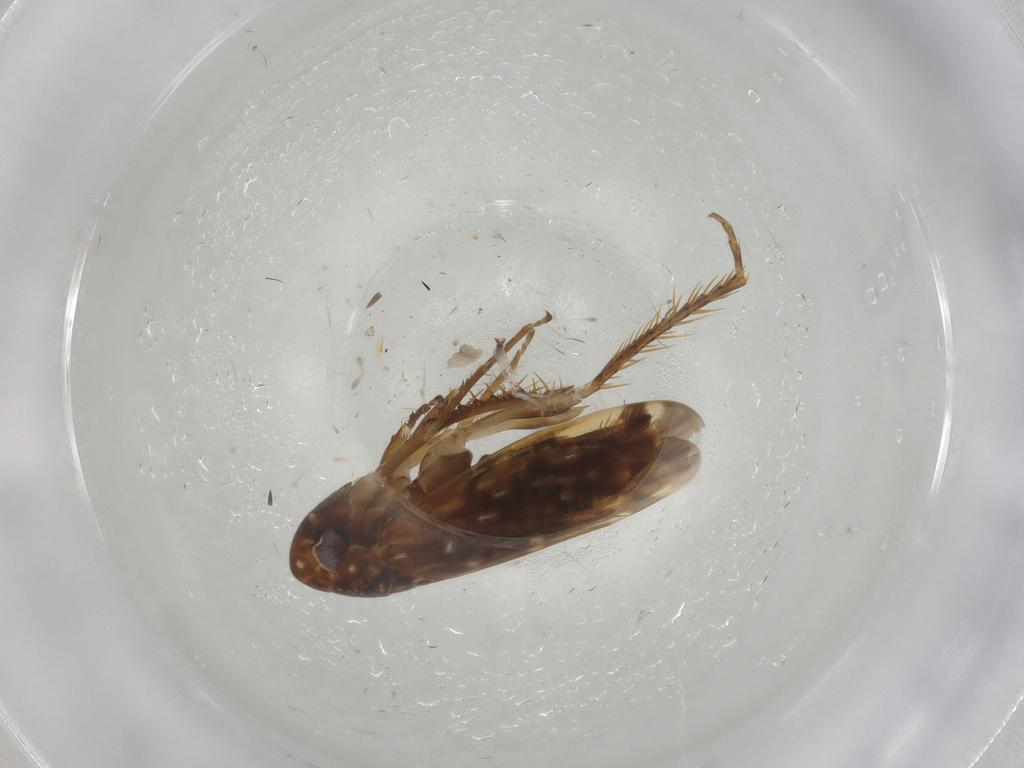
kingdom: Animalia
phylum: Arthropoda
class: Insecta
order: Hemiptera
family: Cicadellidae
